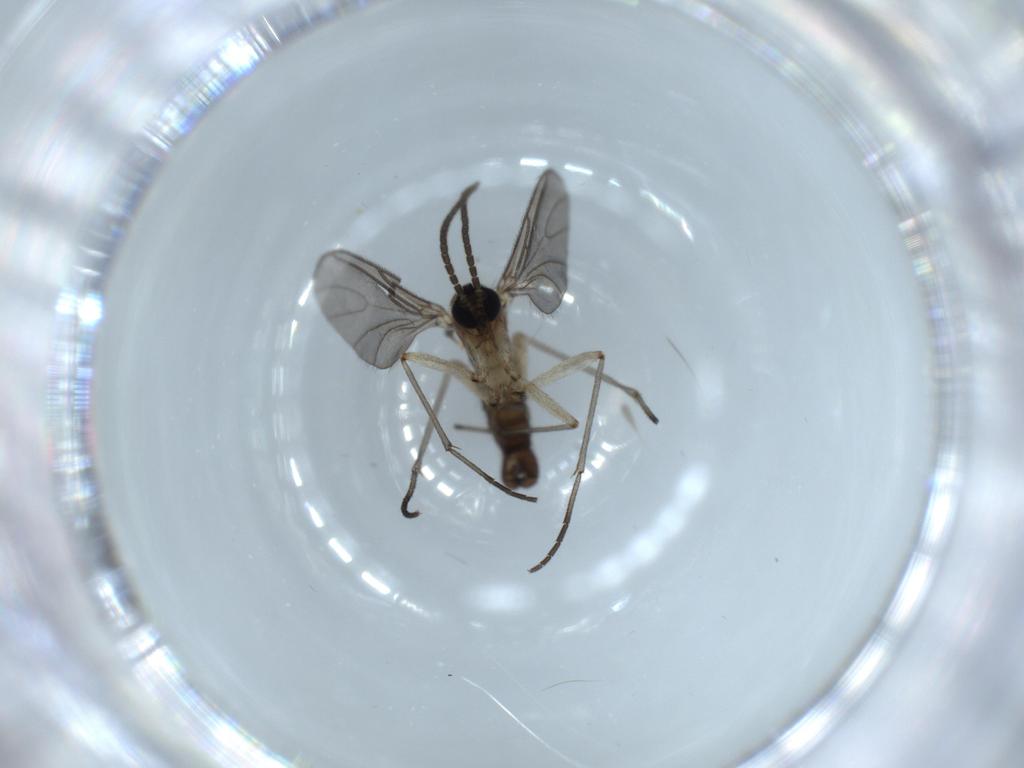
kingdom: Animalia
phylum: Arthropoda
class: Insecta
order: Diptera
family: Sciaridae
